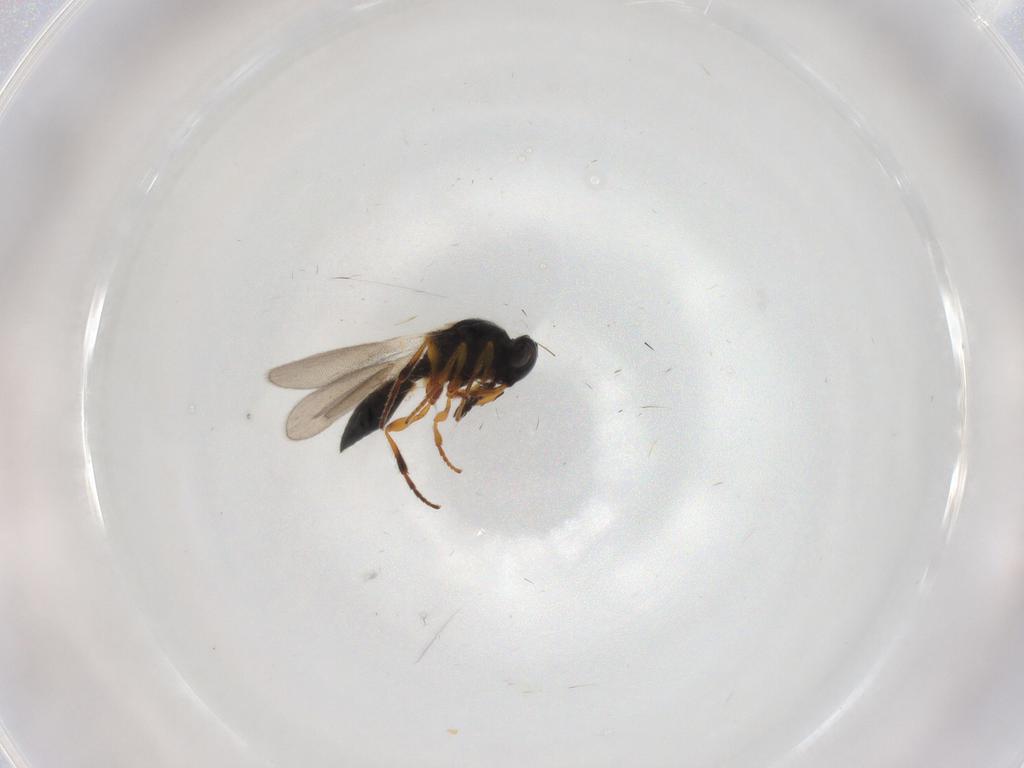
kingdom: Animalia
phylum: Arthropoda
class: Insecta
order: Hymenoptera
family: Platygastridae
